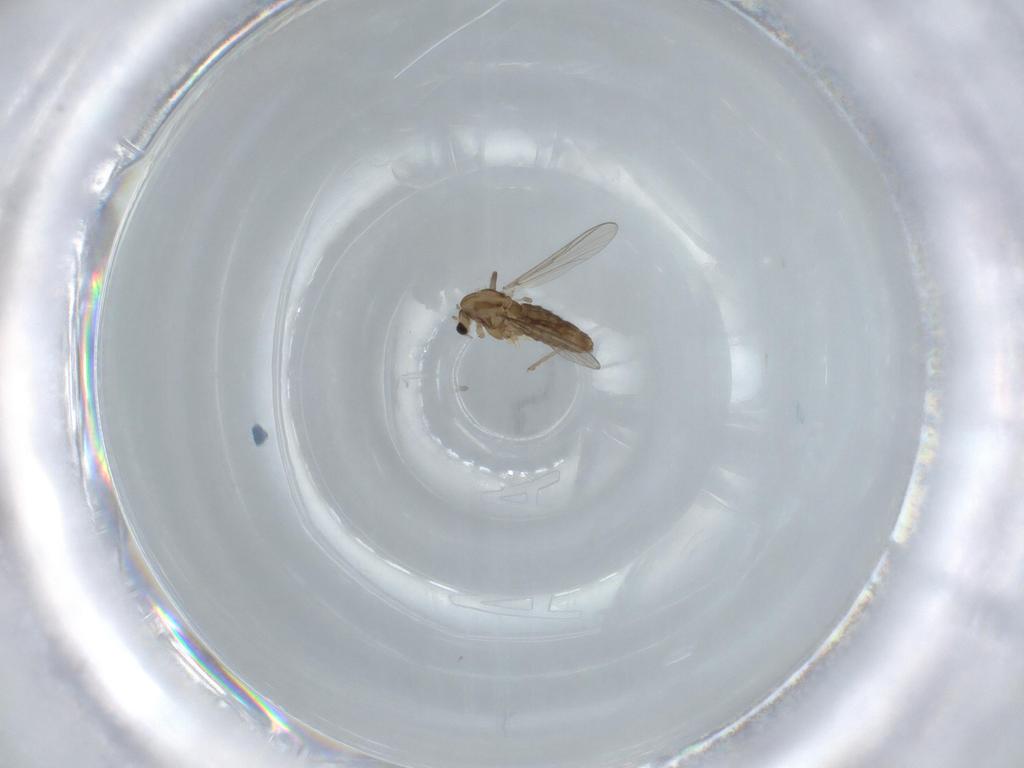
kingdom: Animalia
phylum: Arthropoda
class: Insecta
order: Diptera
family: Chironomidae
